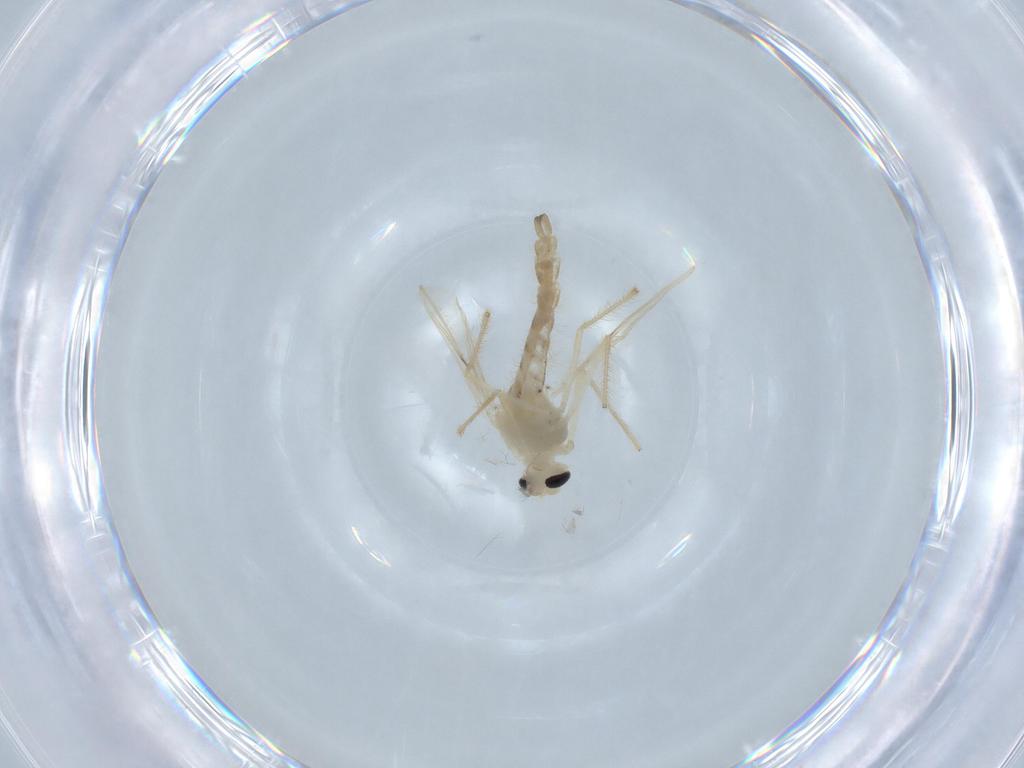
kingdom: Animalia
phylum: Arthropoda
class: Insecta
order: Diptera
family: Chironomidae
